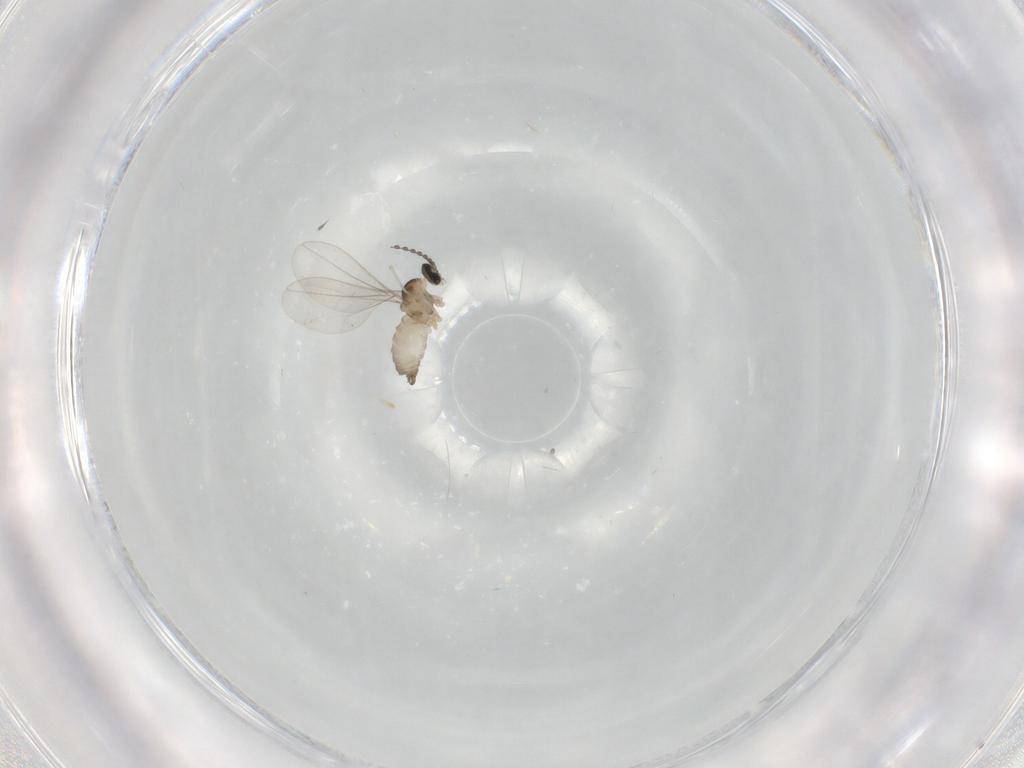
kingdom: Animalia
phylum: Arthropoda
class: Insecta
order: Diptera
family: Cecidomyiidae
